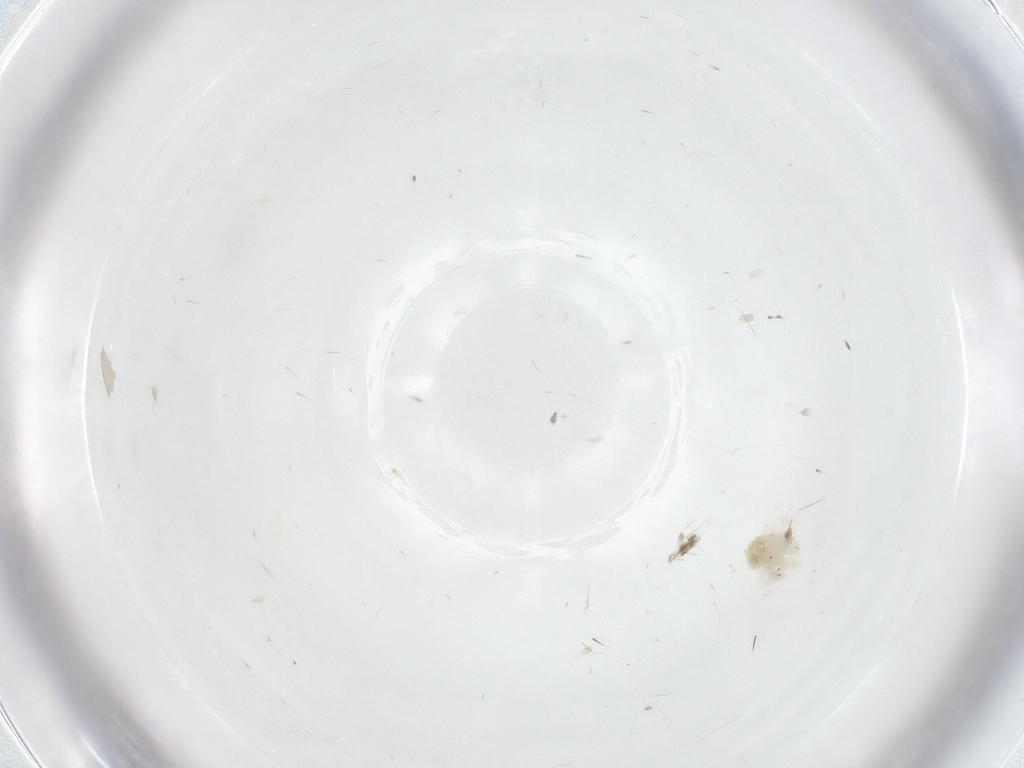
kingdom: Animalia
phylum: Arthropoda
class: Arachnida
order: Trombidiformes
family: Anystidae
